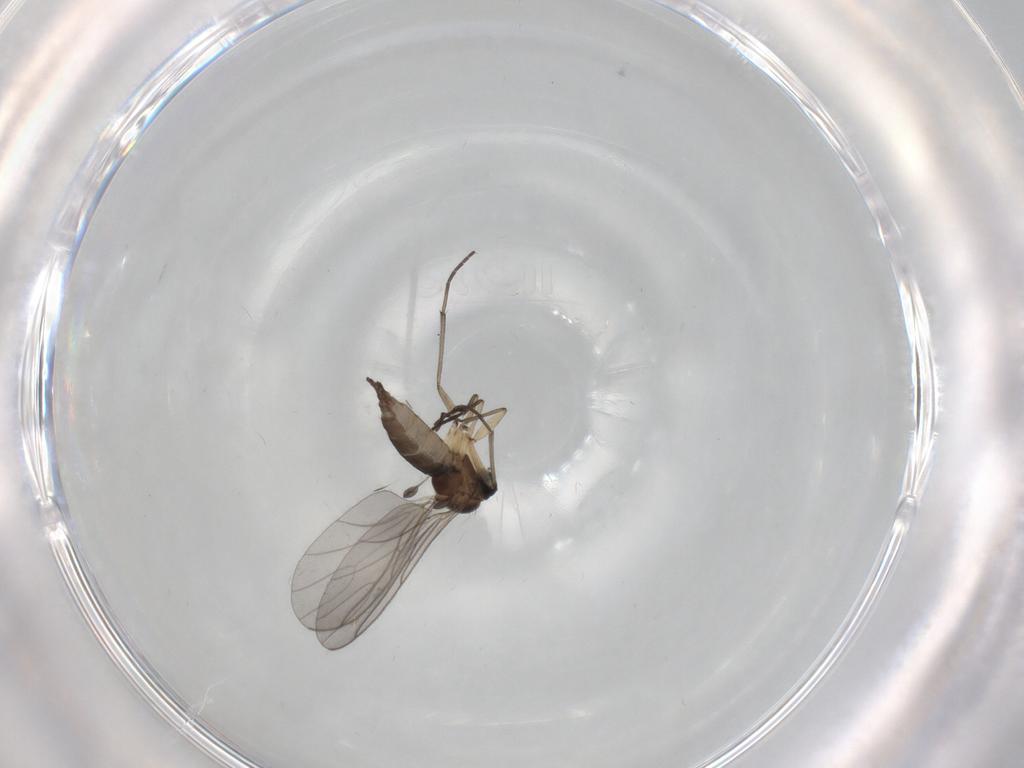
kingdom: Animalia
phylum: Arthropoda
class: Insecta
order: Diptera
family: Sciaridae
